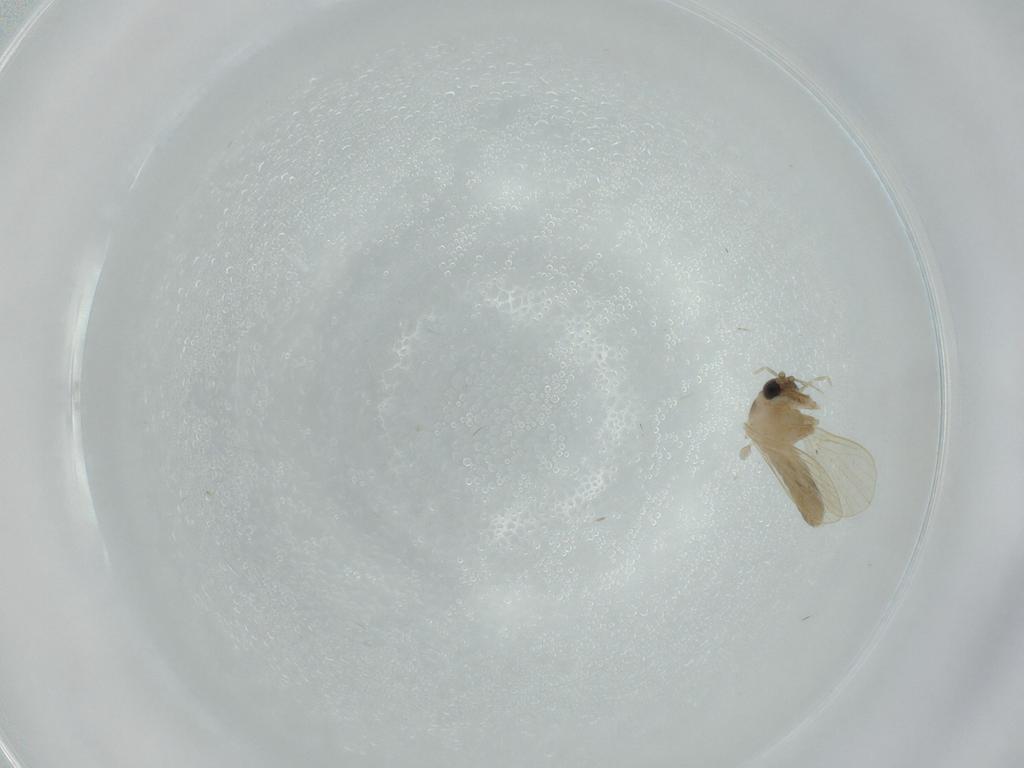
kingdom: Animalia
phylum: Arthropoda
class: Insecta
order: Diptera
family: Psychodidae
